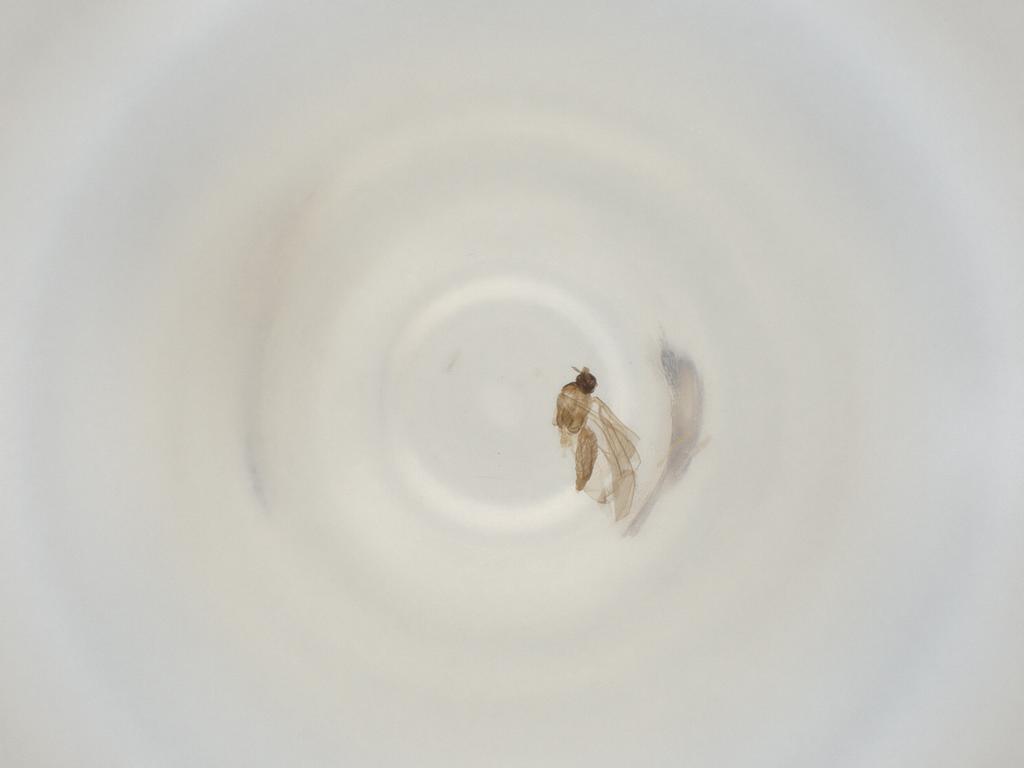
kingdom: Animalia
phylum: Arthropoda
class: Insecta
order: Diptera
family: Cecidomyiidae
